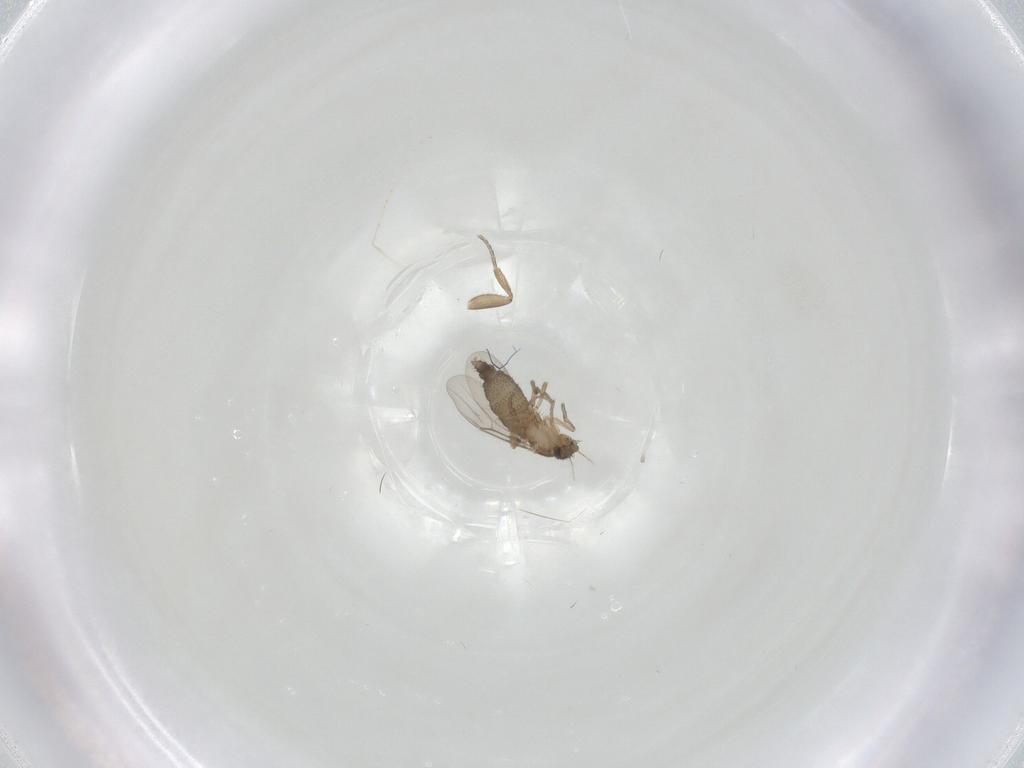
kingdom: Animalia
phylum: Arthropoda
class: Insecta
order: Diptera
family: Phoridae
